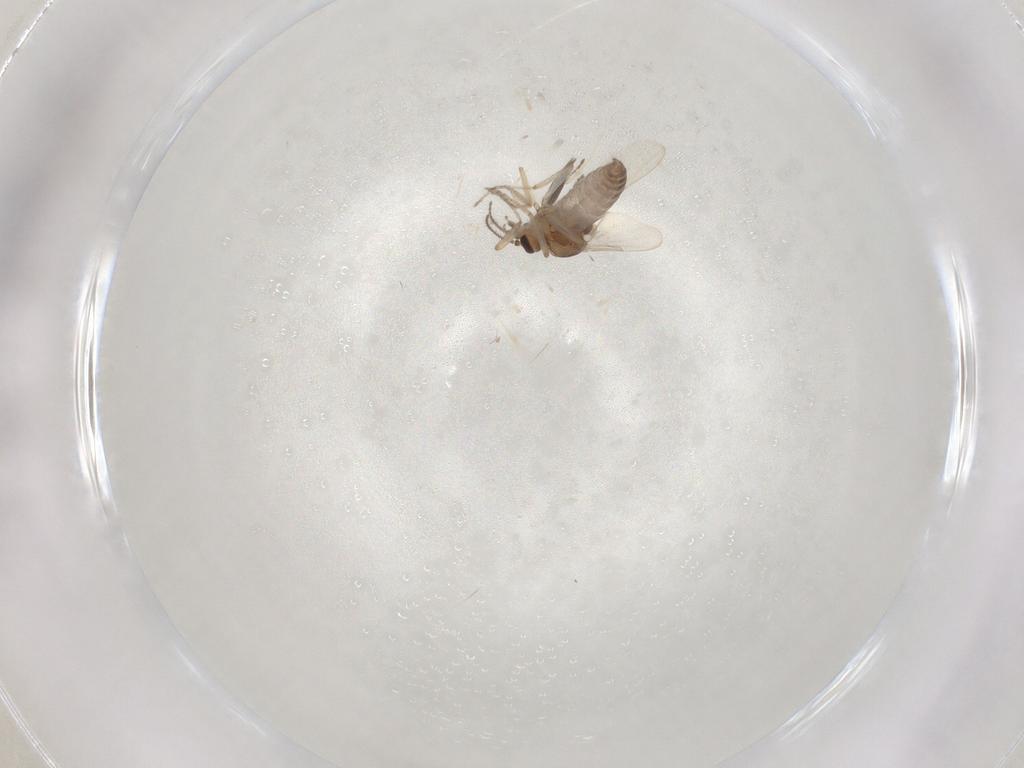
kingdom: Animalia
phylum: Arthropoda
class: Insecta
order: Diptera
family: Ceratopogonidae
